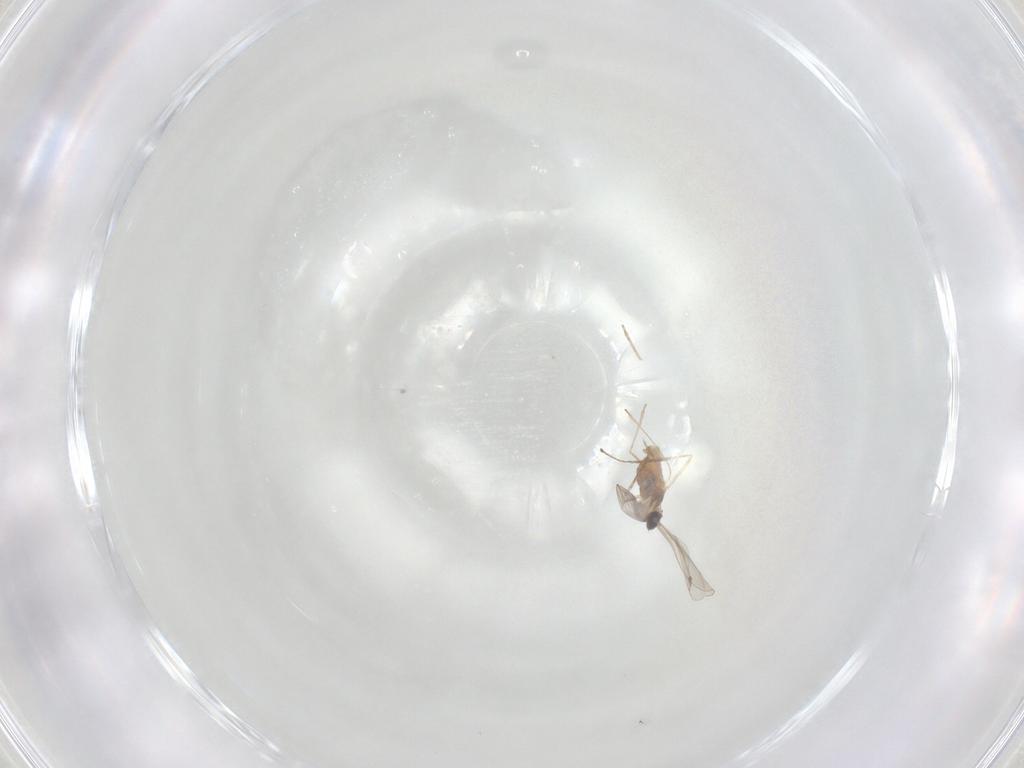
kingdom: Animalia
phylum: Arthropoda
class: Insecta
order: Diptera
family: Cecidomyiidae
